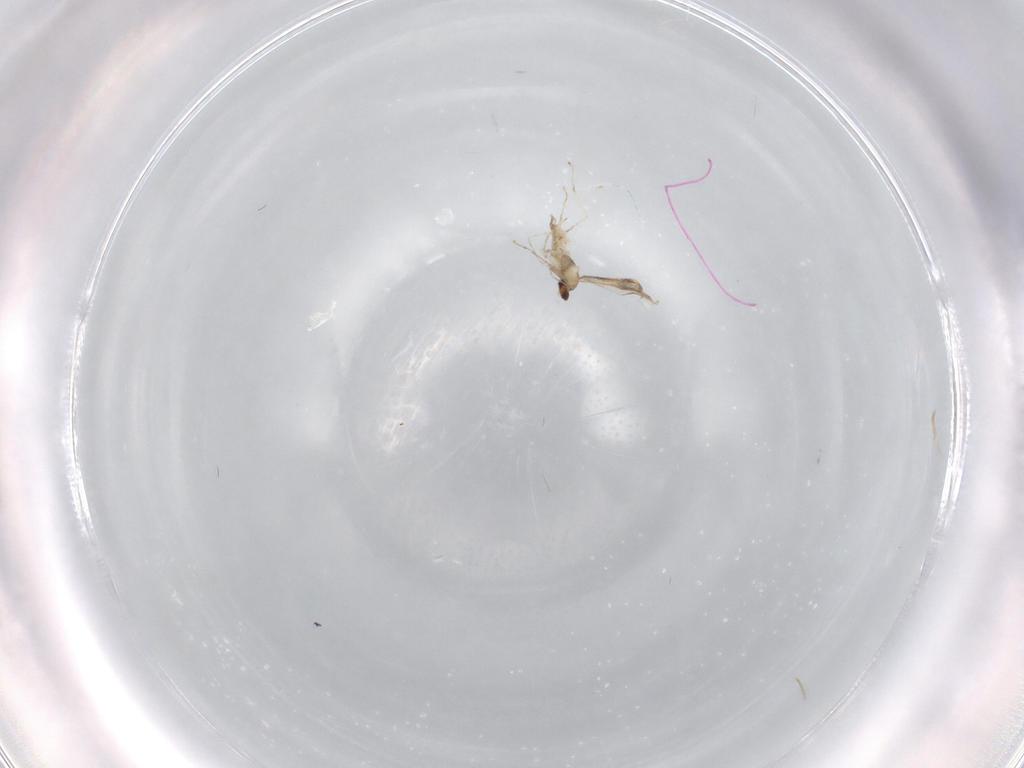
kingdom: Animalia
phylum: Arthropoda
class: Insecta
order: Diptera
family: Cecidomyiidae
